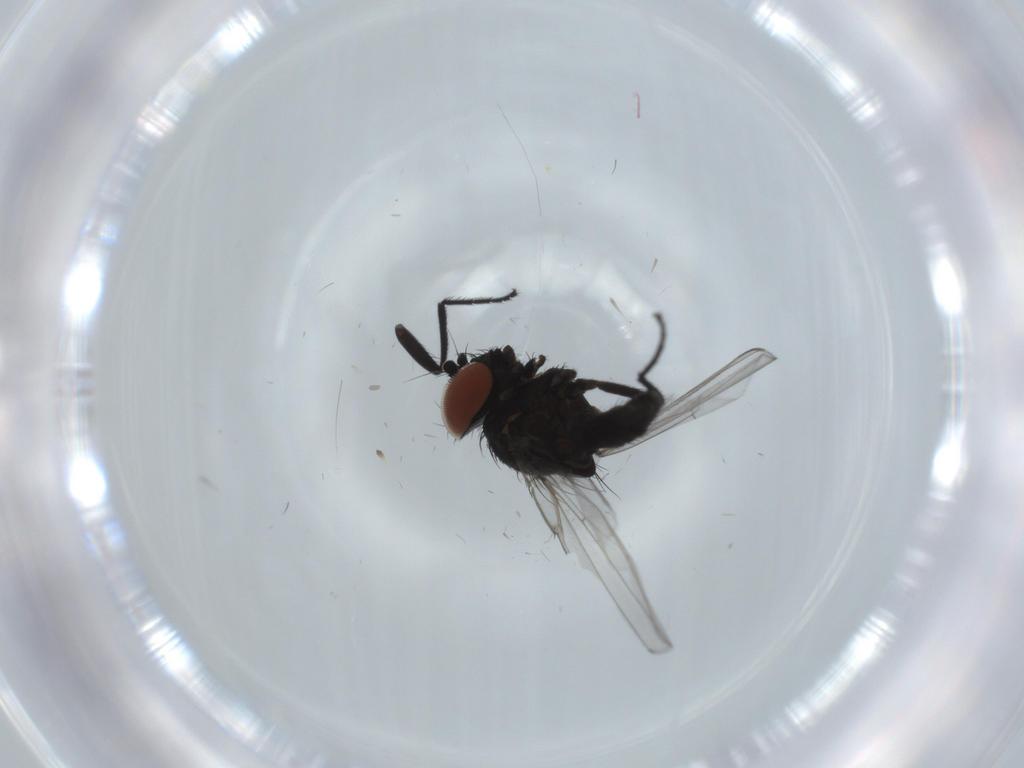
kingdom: Animalia
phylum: Arthropoda
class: Insecta
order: Diptera
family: Milichiidae
